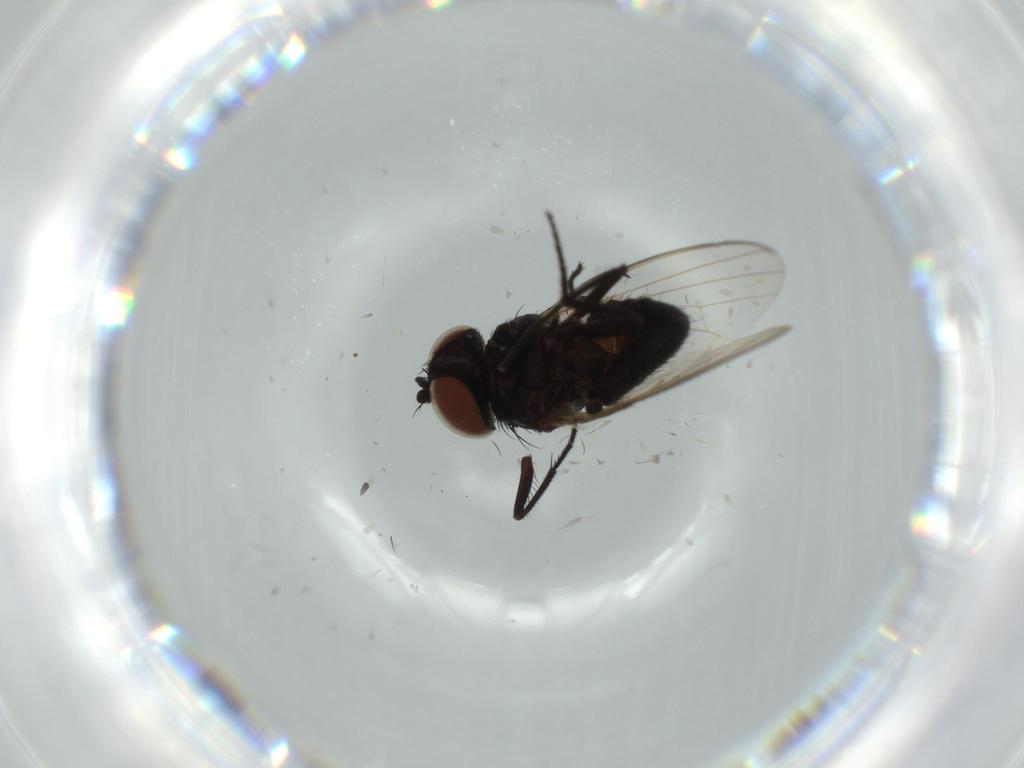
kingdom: Animalia
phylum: Arthropoda
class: Insecta
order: Diptera
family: Milichiidae
